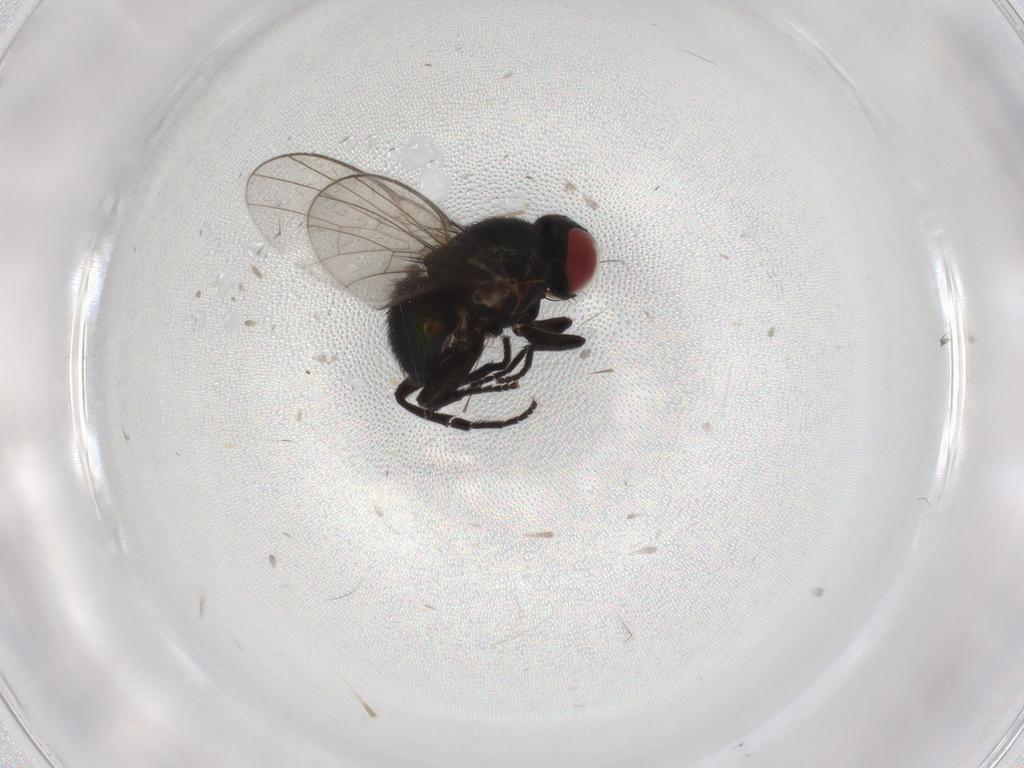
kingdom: Animalia
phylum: Arthropoda
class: Insecta
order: Diptera
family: Agromyzidae
